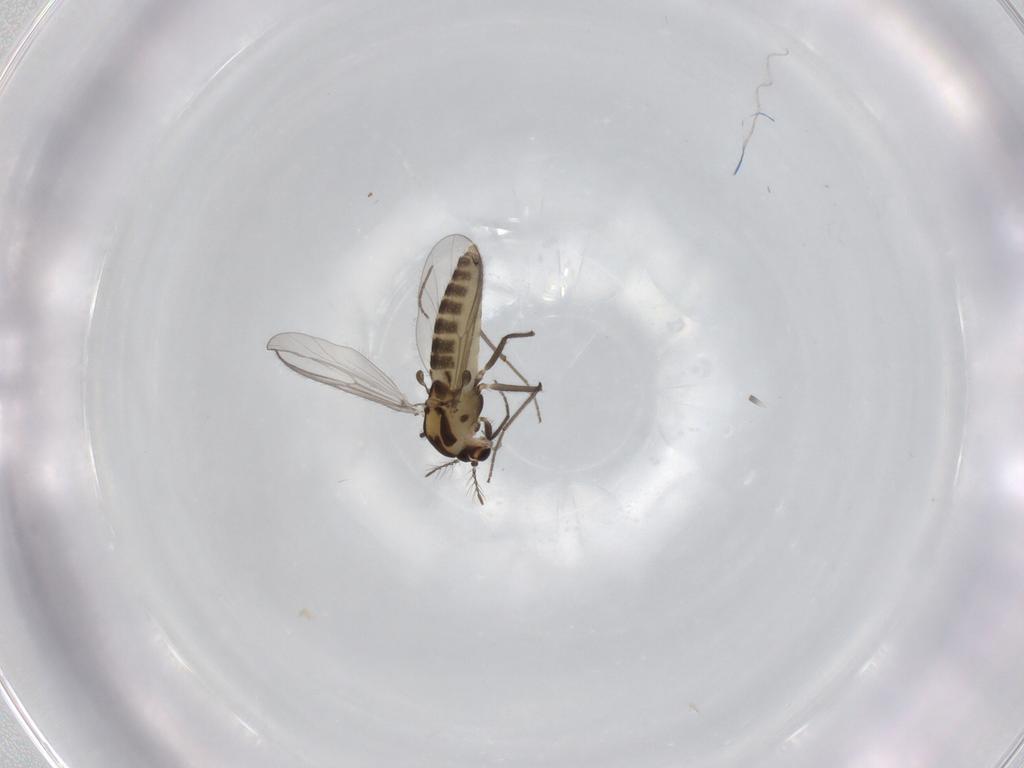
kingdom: Animalia
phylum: Arthropoda
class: Insecta
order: Diptera
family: Chironomidae
